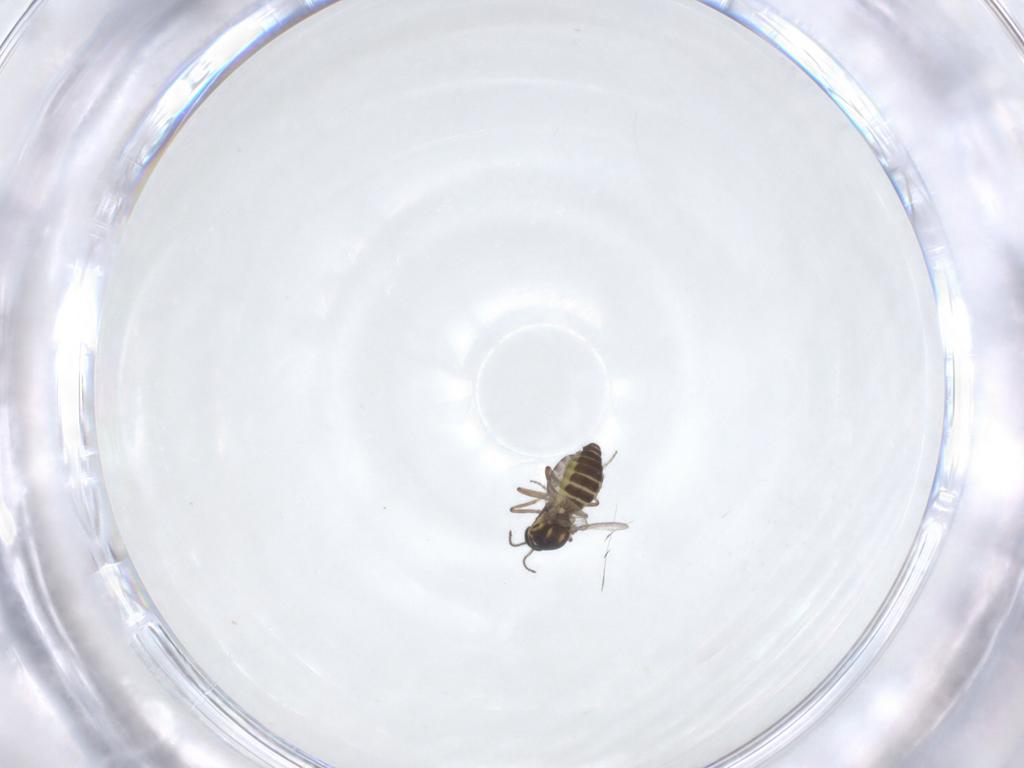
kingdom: Animalia
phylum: Arthropoda
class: Insecta
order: Diptera
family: Ceratopogonidae
